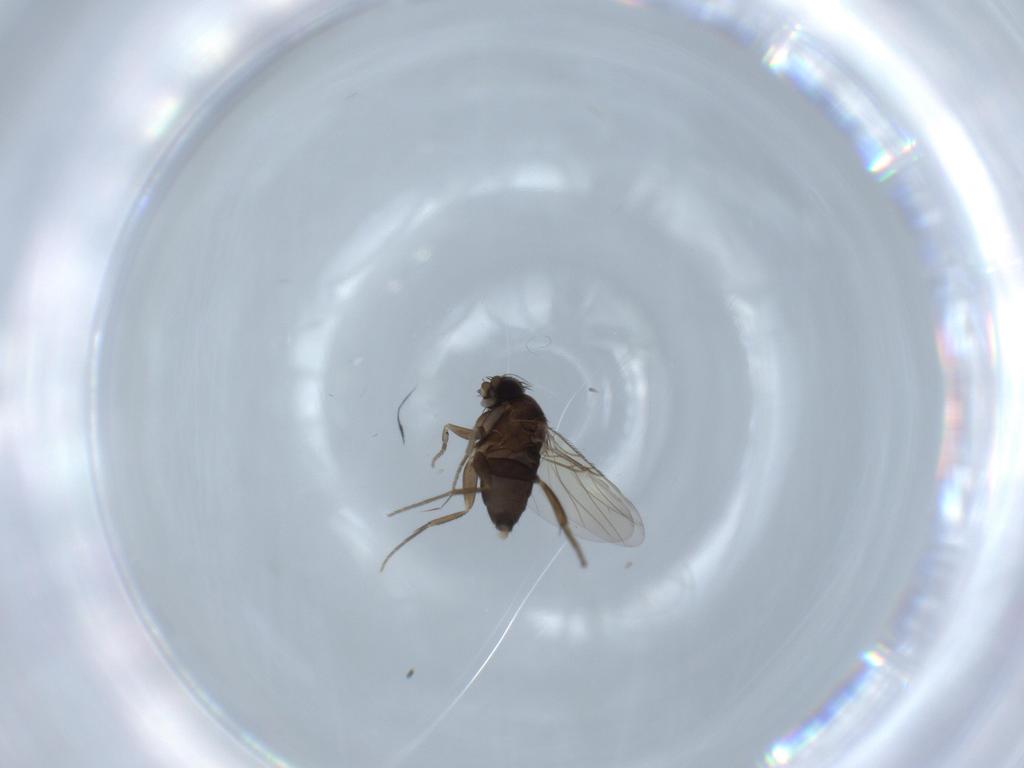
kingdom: Animalia
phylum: Arthropoda
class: Insecta
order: Diptera
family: Phoridae
